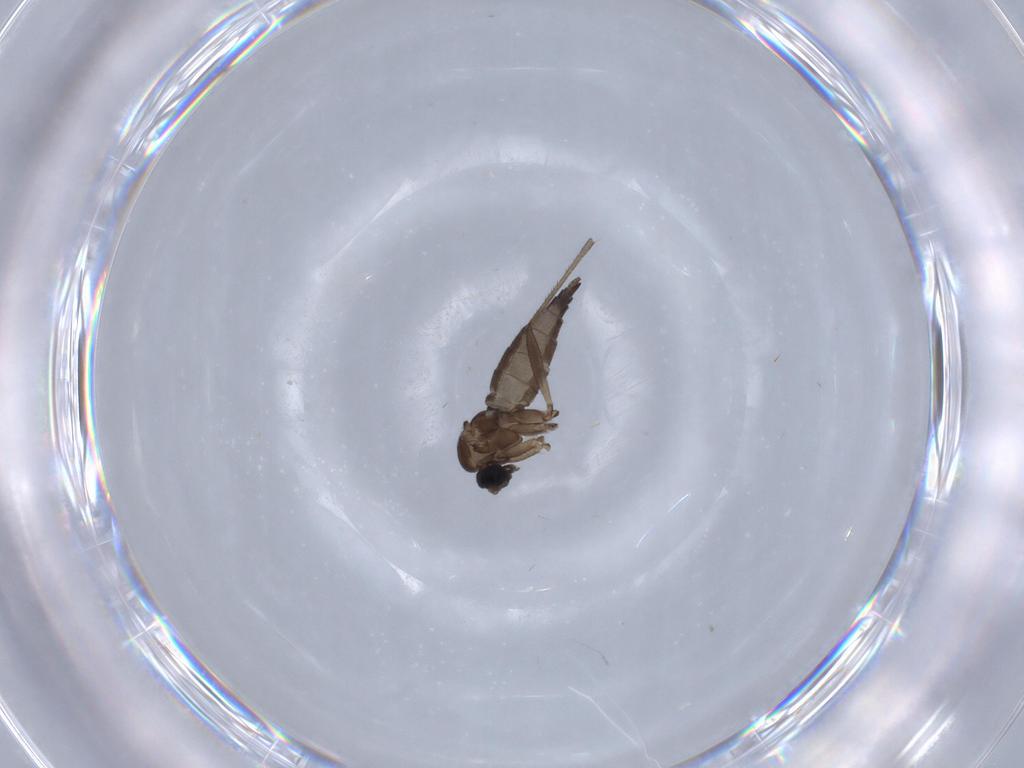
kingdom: Animalia
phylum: Arthropoda
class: Insecta
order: Diptera
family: Sciaridae
